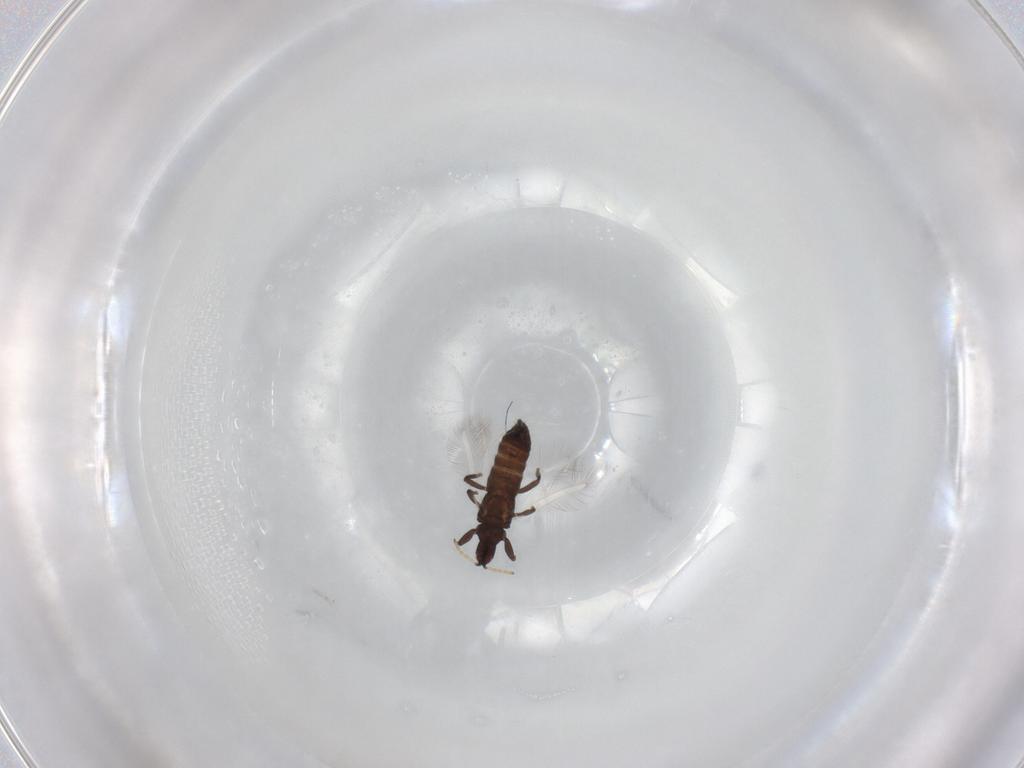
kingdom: Animalia
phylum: Arthropoda
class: Insecta
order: Thysanoptera
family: Phlaeothripidae
